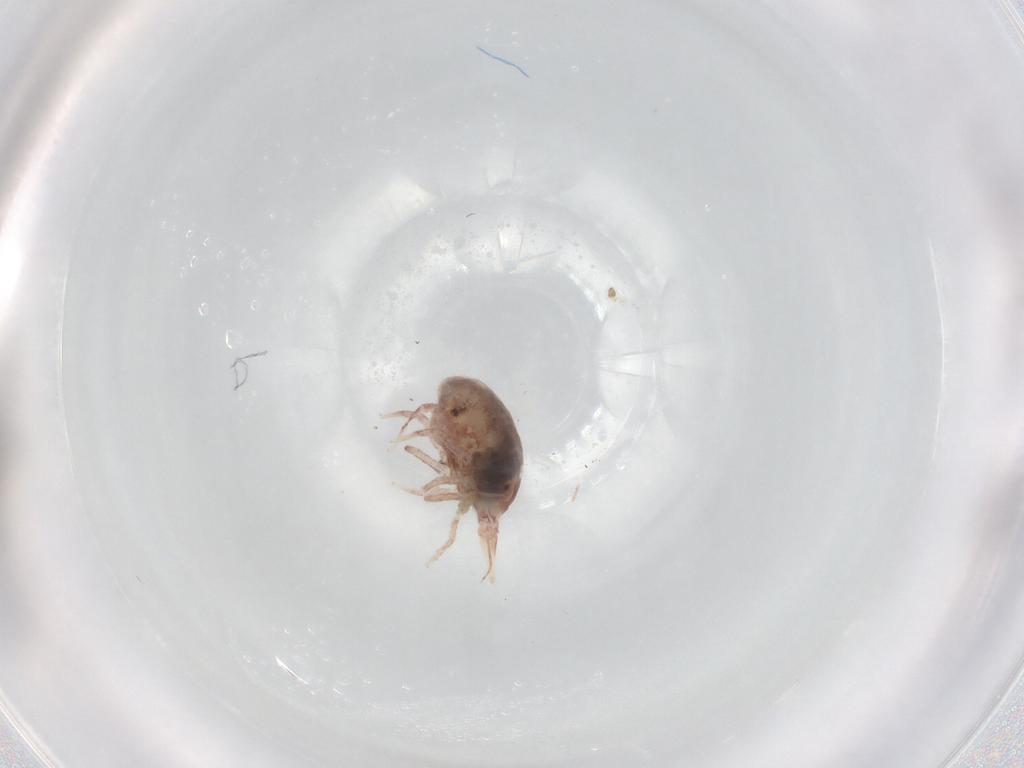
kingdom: Animalia
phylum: Arthropoda
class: Arachnida
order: Trombidiformes
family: Eupodidae
